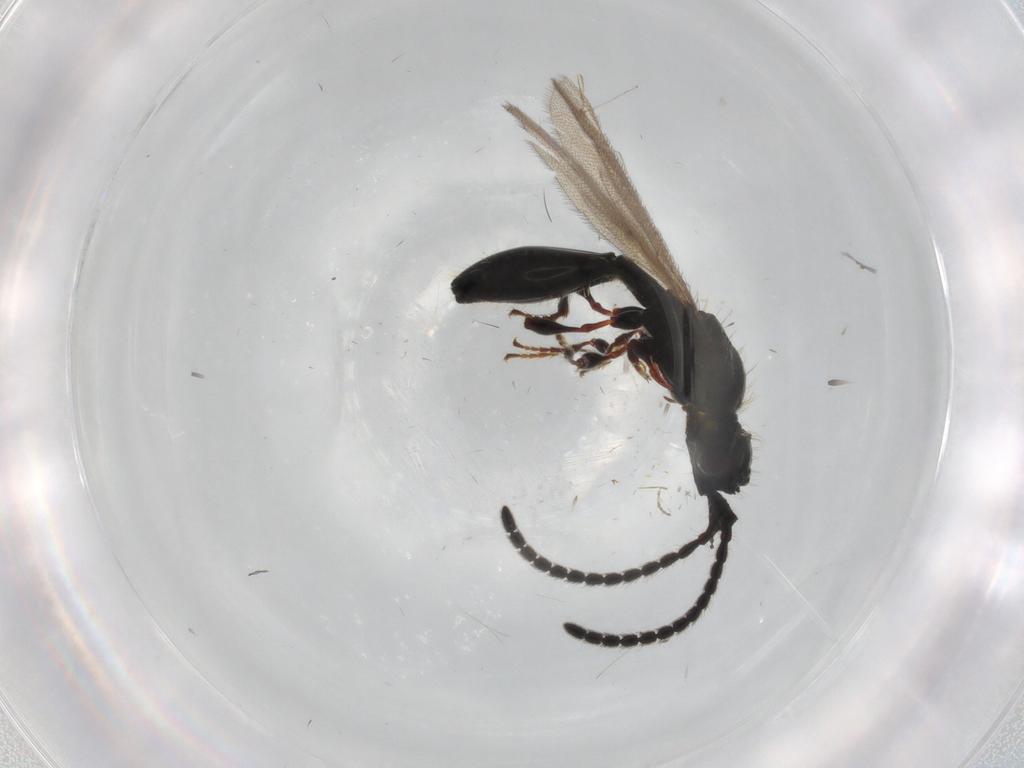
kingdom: Animalia
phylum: Arthropoda
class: Insecta
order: Hymenoptera
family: Diapriidae
